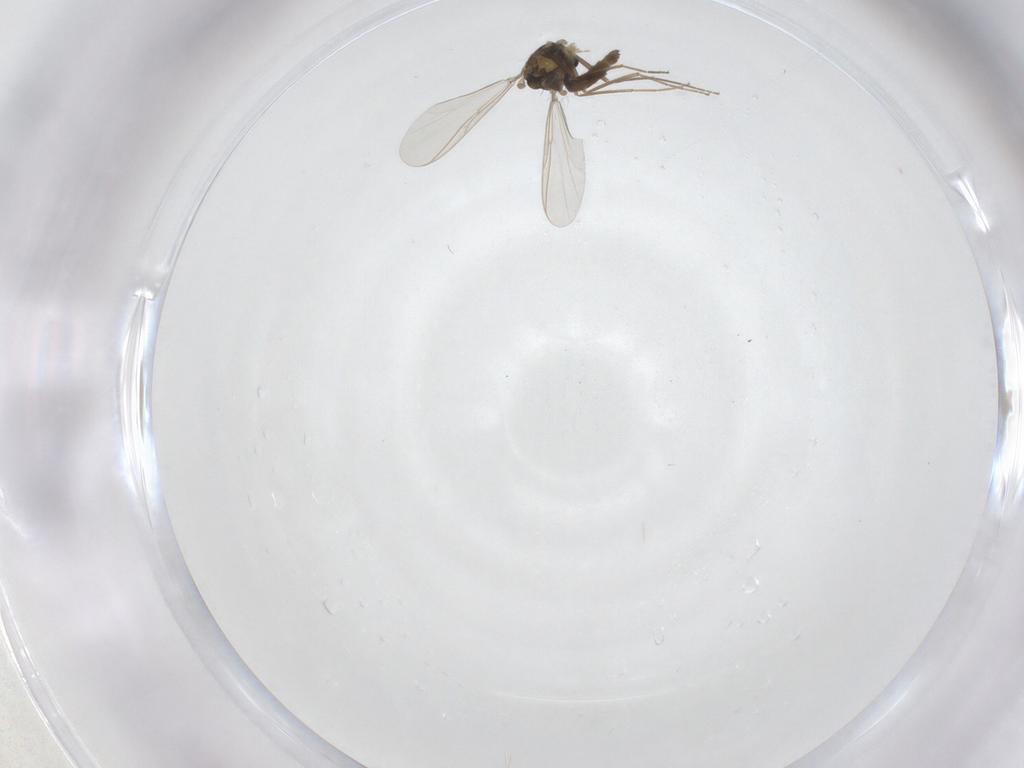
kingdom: Animalia
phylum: Arthropoda
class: Insecta
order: Diptera
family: Chironomidae
